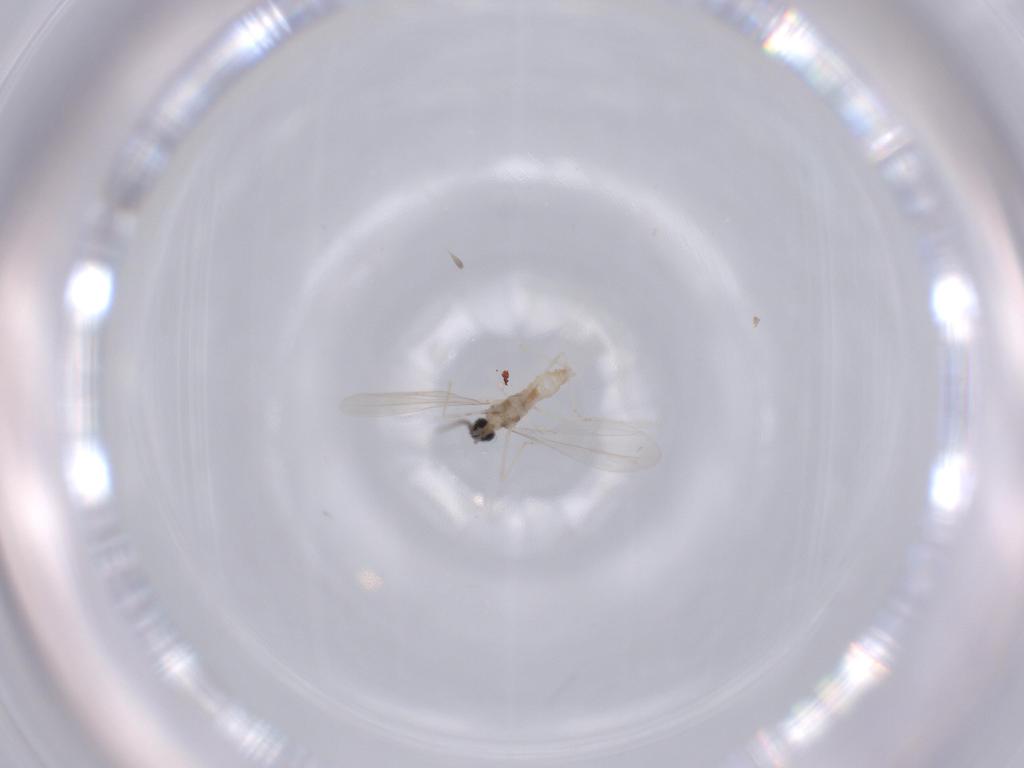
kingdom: Animalia
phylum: Arthropoda
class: Insecta
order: Diptera
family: Cecidomyiidae
